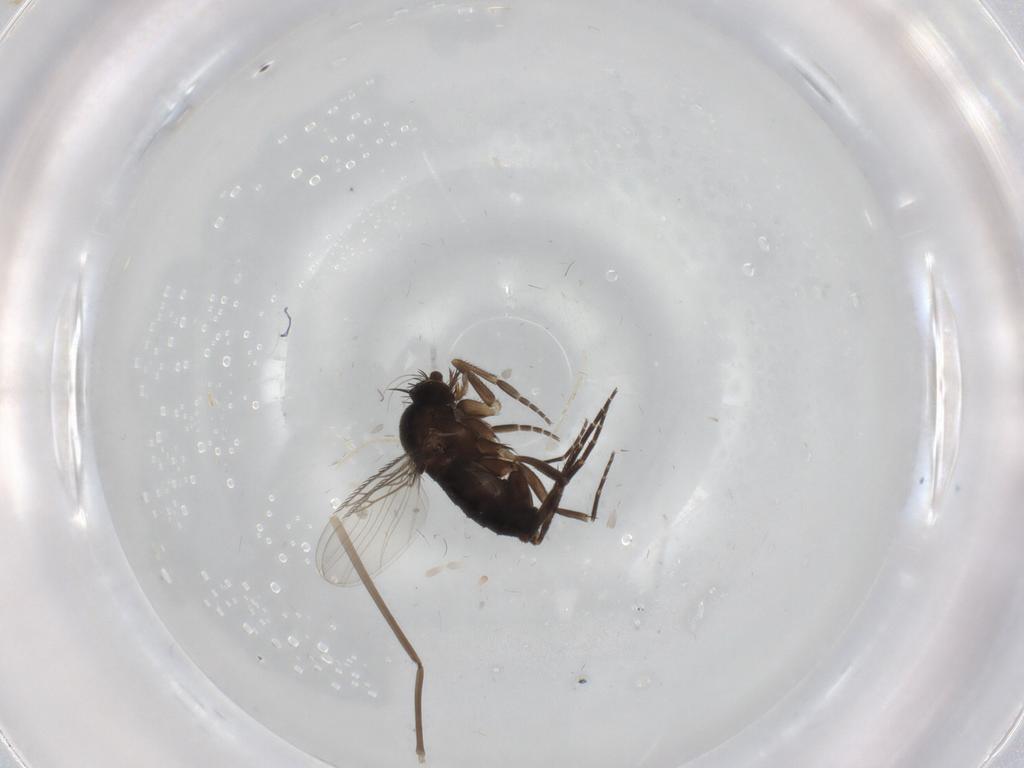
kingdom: Animalia
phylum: Arthropoda
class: Insecta
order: Diptera
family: Cecidomyiidae
